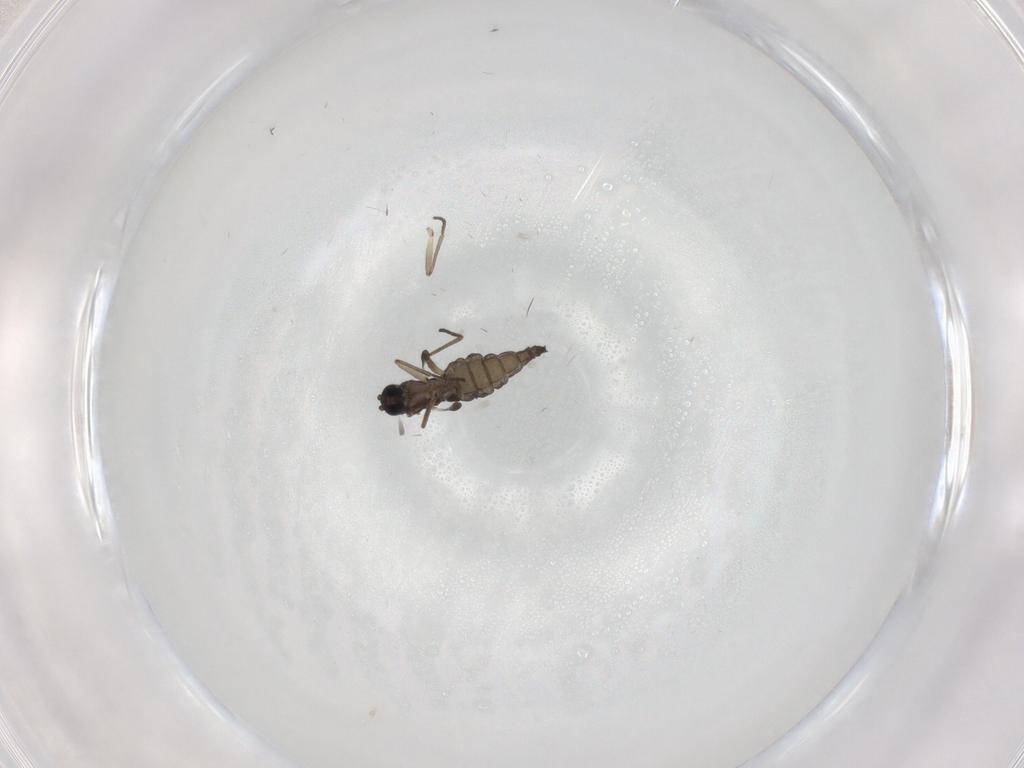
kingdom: Animalia
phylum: Arthropoda
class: Insecta
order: Diptera
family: Sciaridae
